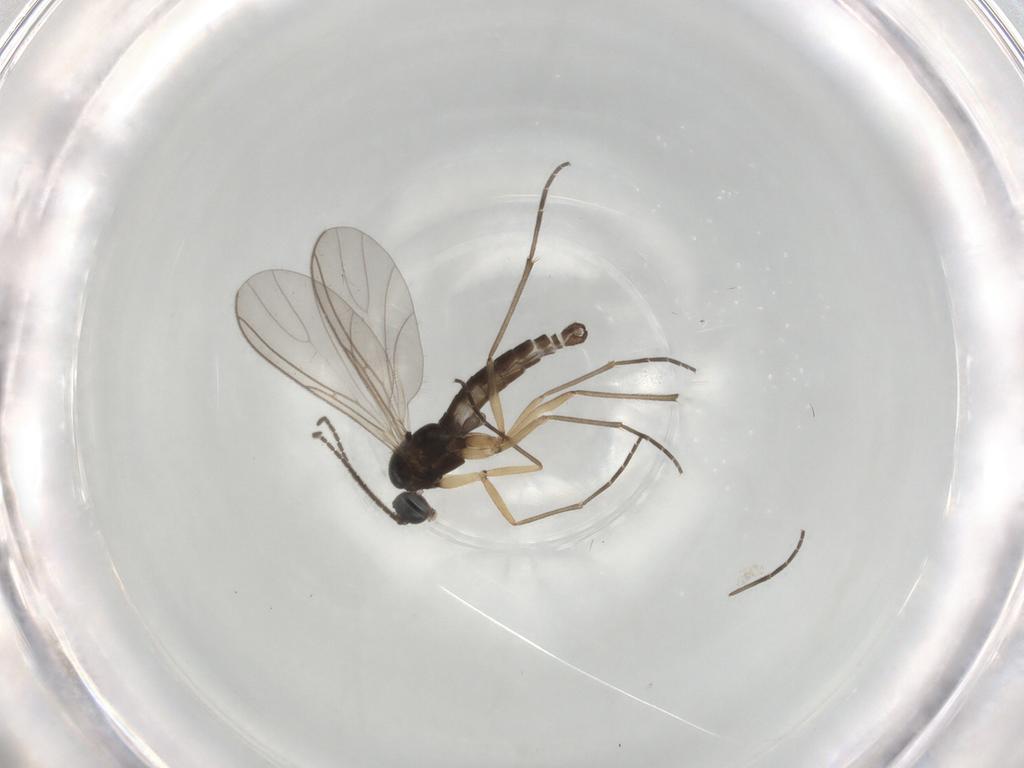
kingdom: Animalia
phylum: Arthropoda
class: Insecta
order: Diptera
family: Sciaridae
